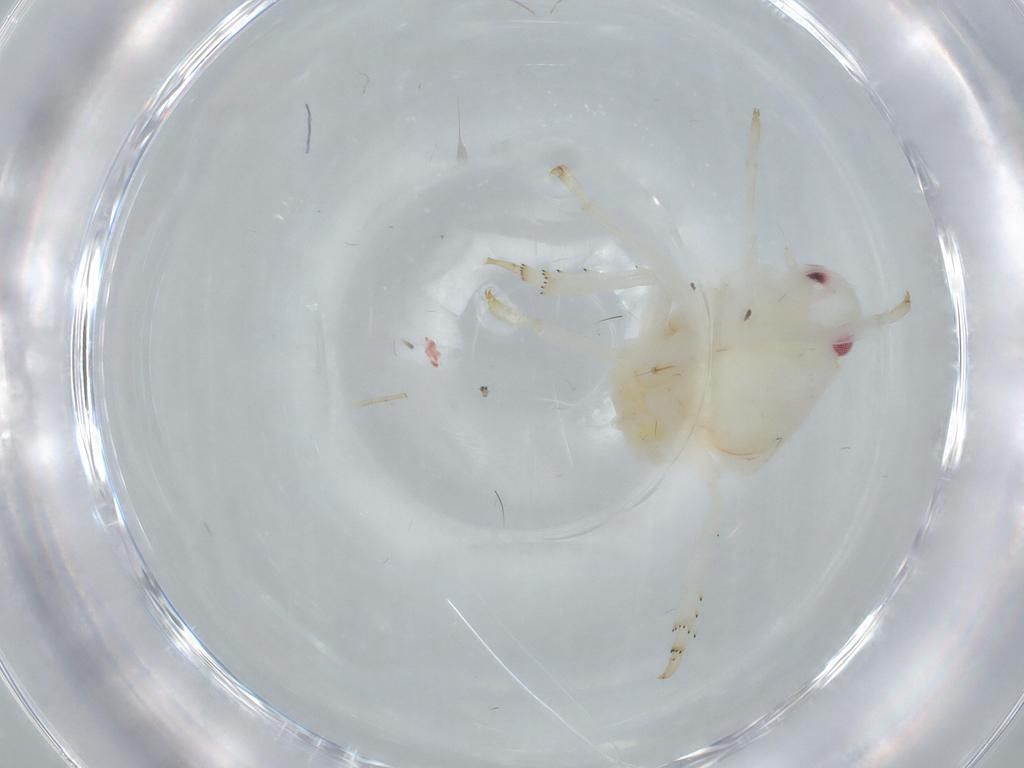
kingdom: Animalia
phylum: Arthropoda
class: Insecta
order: Hemiptera
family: Flatidae
